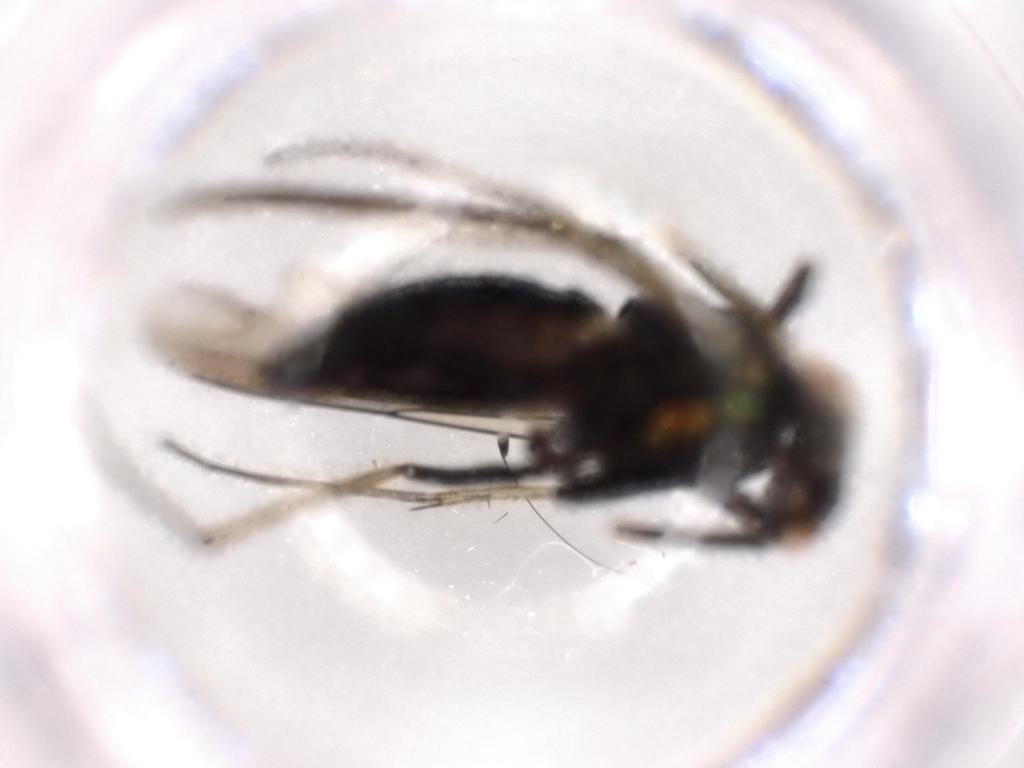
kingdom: Animalia
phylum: Arthropoda
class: Insecta
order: Diptera
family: Dolichopodidae
